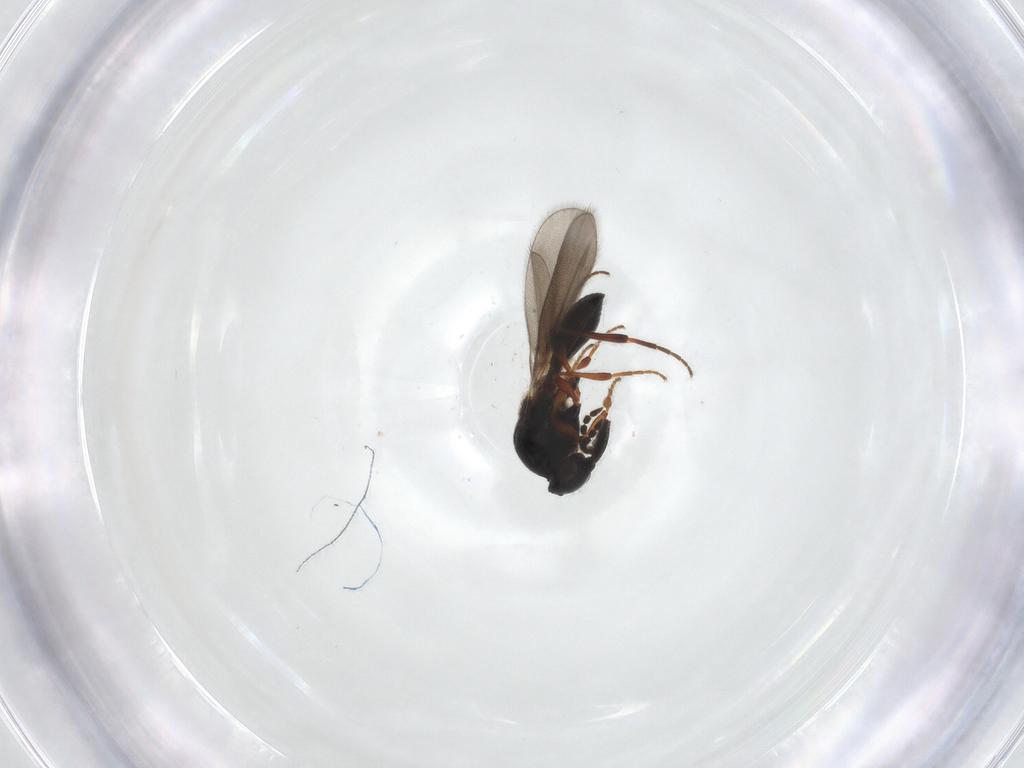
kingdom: Animalia
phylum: Arthropoda
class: Insecta
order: Hymenoptera
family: Platygastridae
